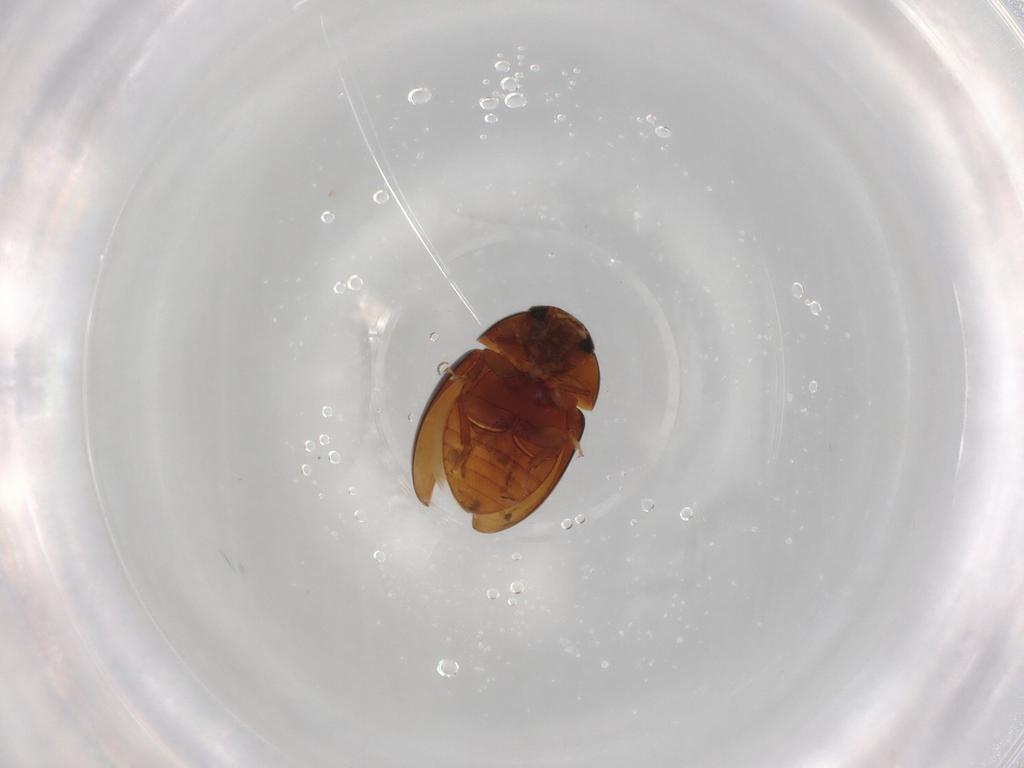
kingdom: Animalia
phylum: Arthropoda
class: Insecta
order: Coleoptera
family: Phalacridae
